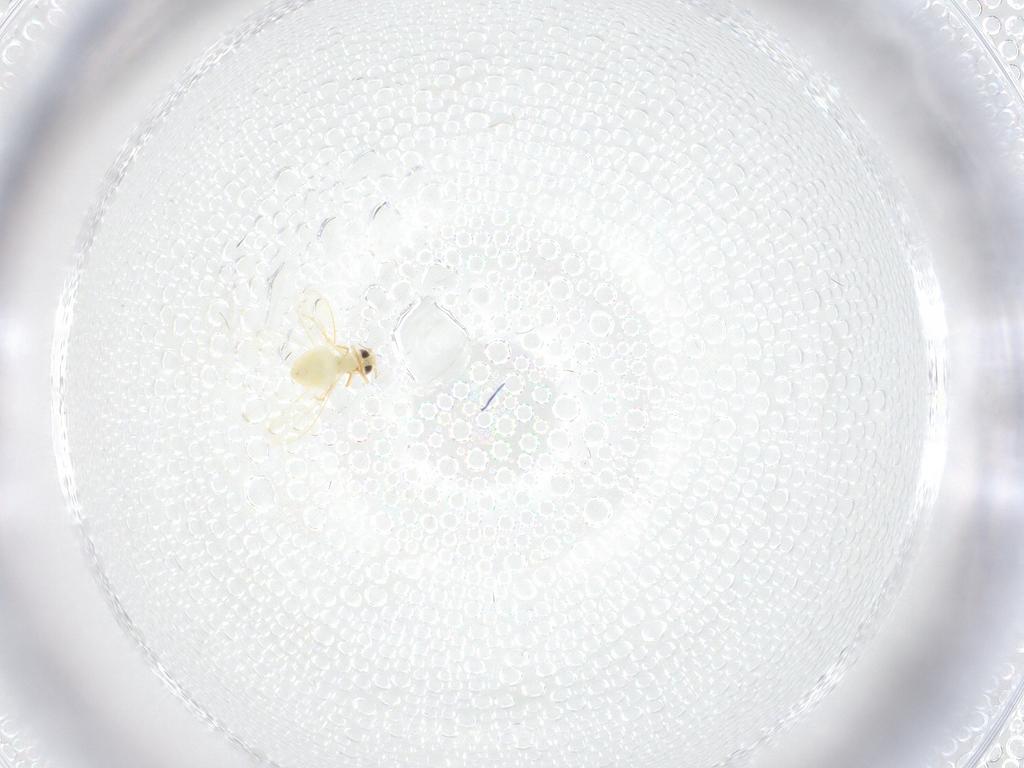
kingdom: Animalia
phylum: Arthropoda
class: Insecta
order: Hemiptera
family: Aleyrodidae
